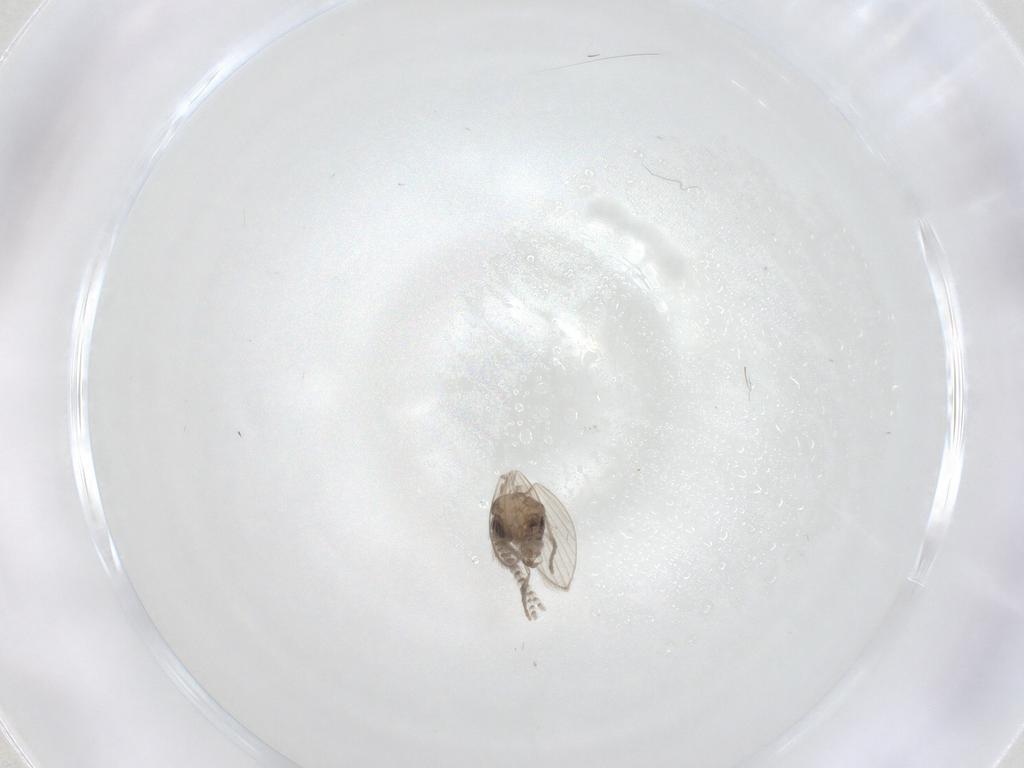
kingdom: Animalia
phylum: Arthropoda
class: Insecta
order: Diptera
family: Psychodidae
